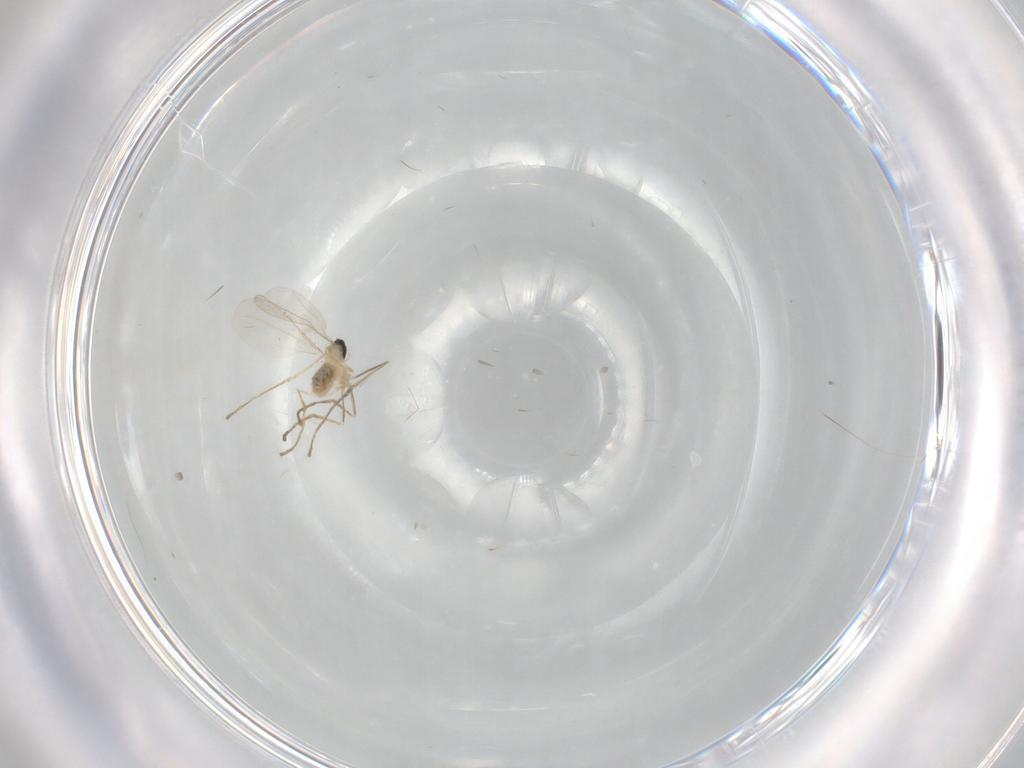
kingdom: Animalia
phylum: Arthropoda
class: Insecta
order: Diptera
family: Cecidomyiidae
